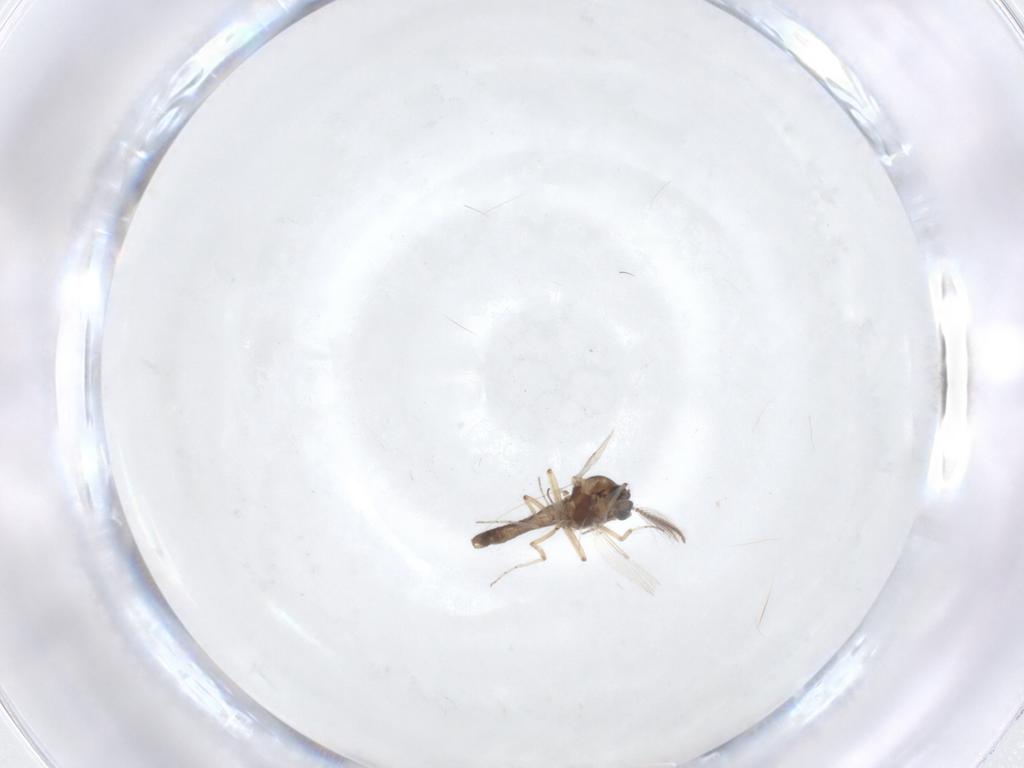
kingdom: Animalia
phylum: Arthropoda
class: Insecta
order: Diptera
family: Ceratopogonidae
